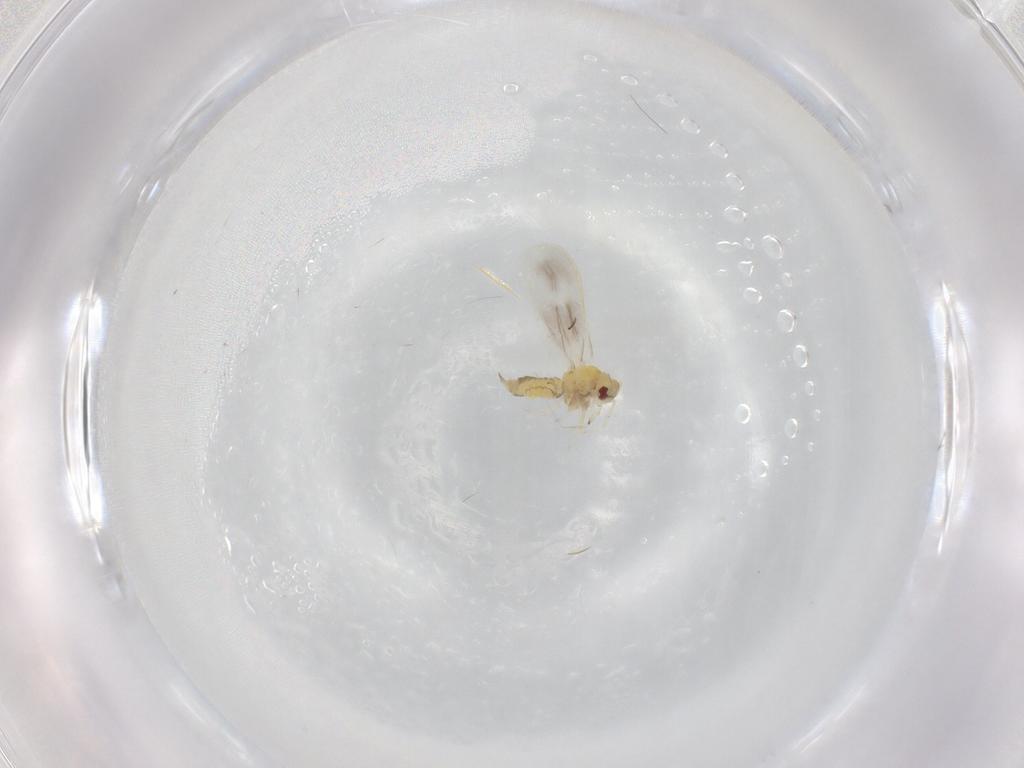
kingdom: Animalia
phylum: Arthropoda
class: Insecta
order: Hemiptera
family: Aleyrodidae
